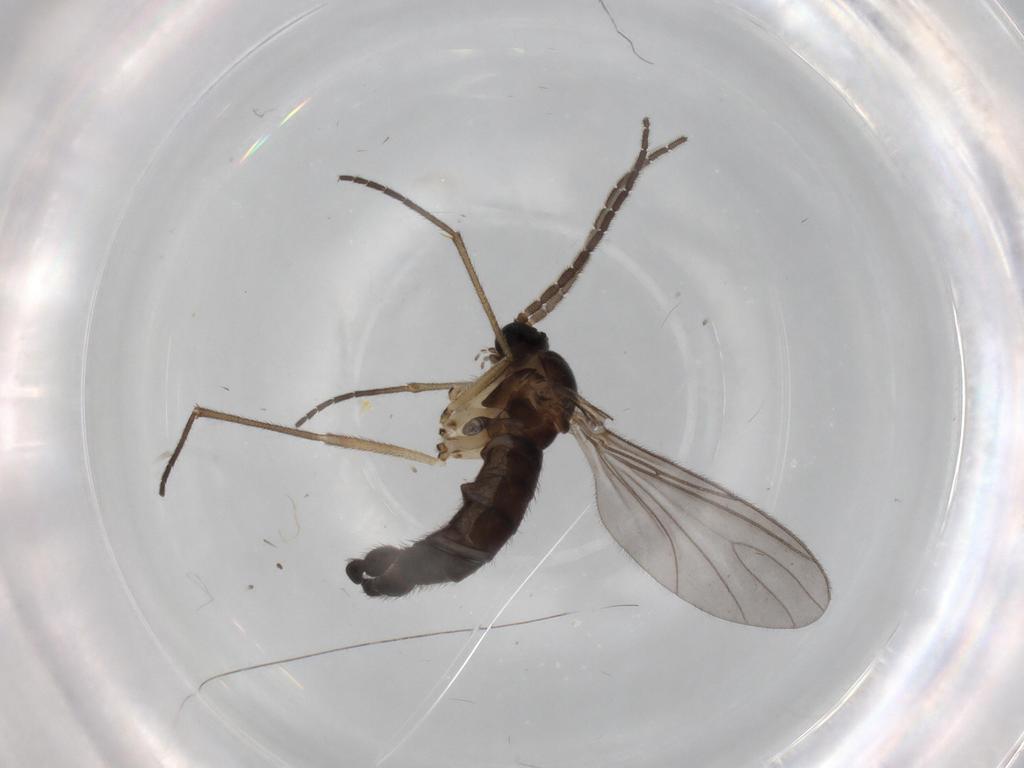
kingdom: Animalia
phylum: Arthropoda
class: Insecta
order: Diptera
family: Sciaridae
